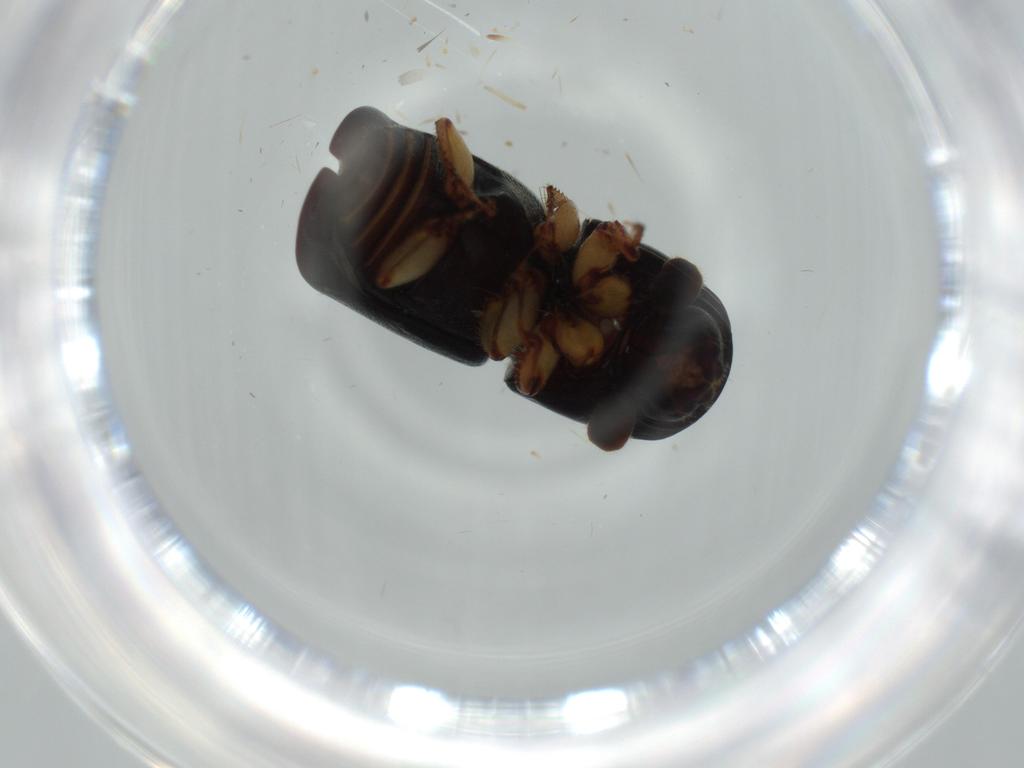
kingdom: Animalia
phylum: Arthropoda
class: Insecta
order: Coleoptera
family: Curculionidae
